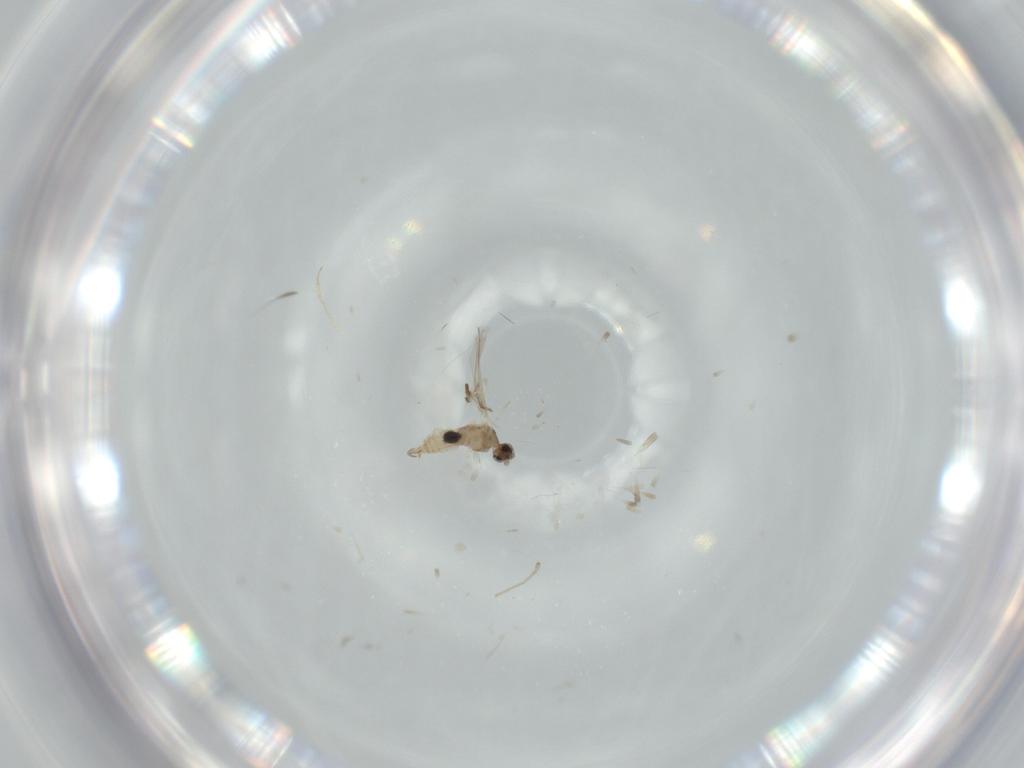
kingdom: Animalia
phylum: Arthropoda
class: Insecta
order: Diptera
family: Cecidomyiidae
